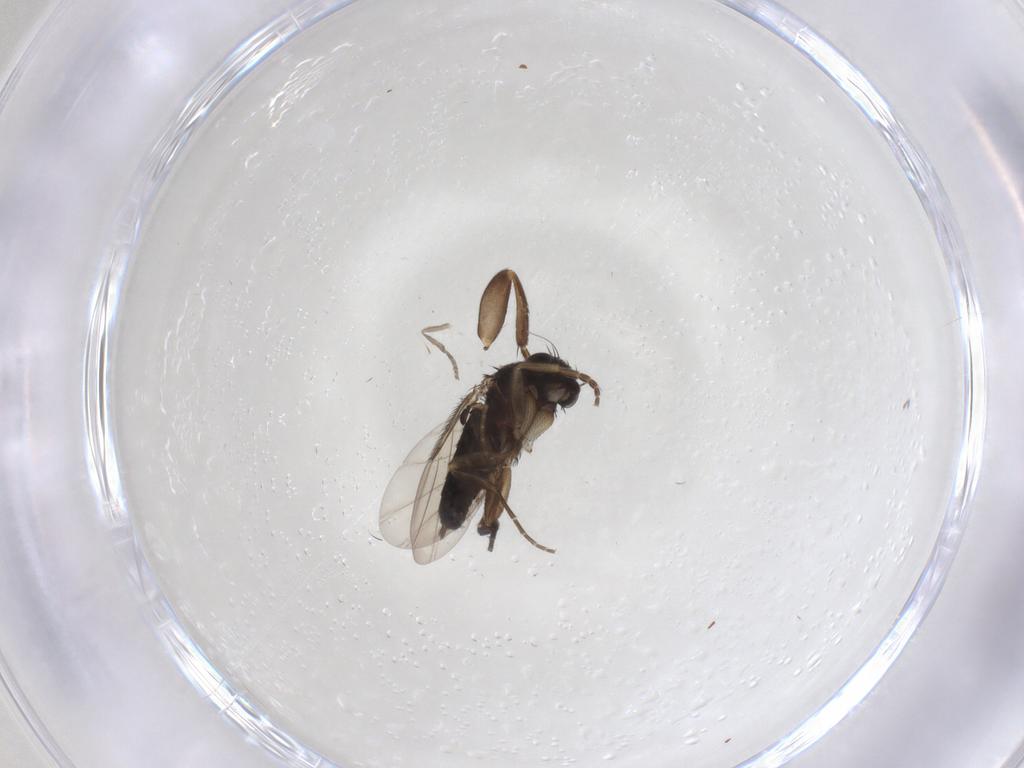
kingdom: Animalia
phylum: Arthropoda
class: Insecta
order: Diptera
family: Phoridae
